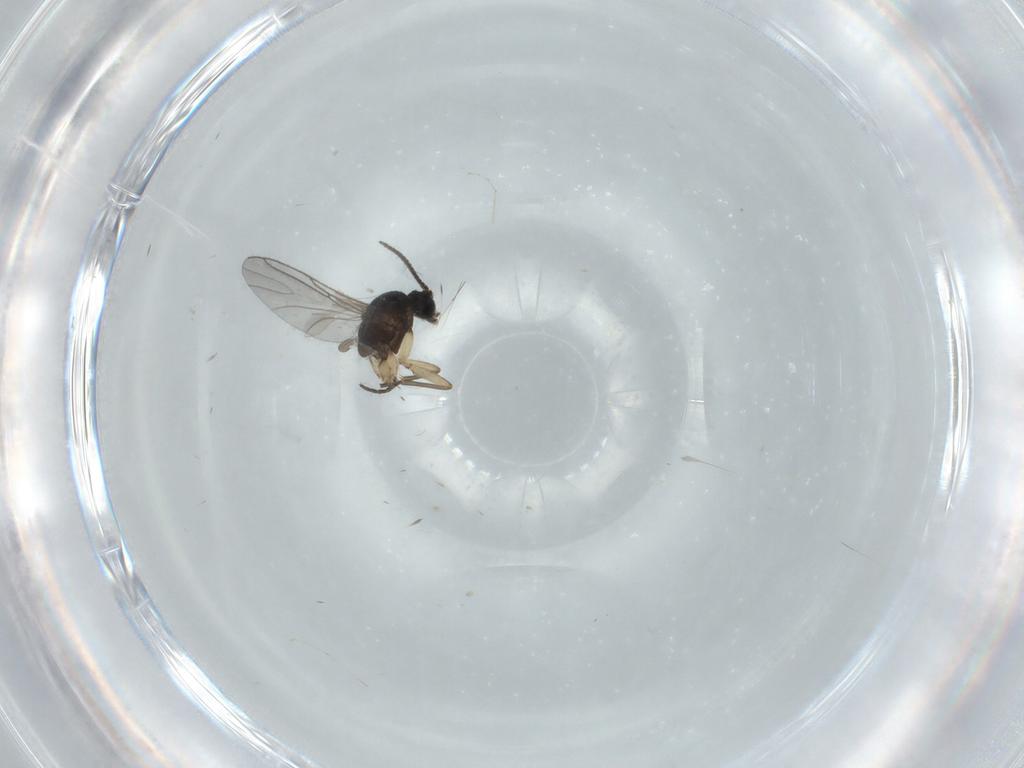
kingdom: Animalia
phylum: Arthropoda
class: Insecta
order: Diptera
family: Sciaridae
